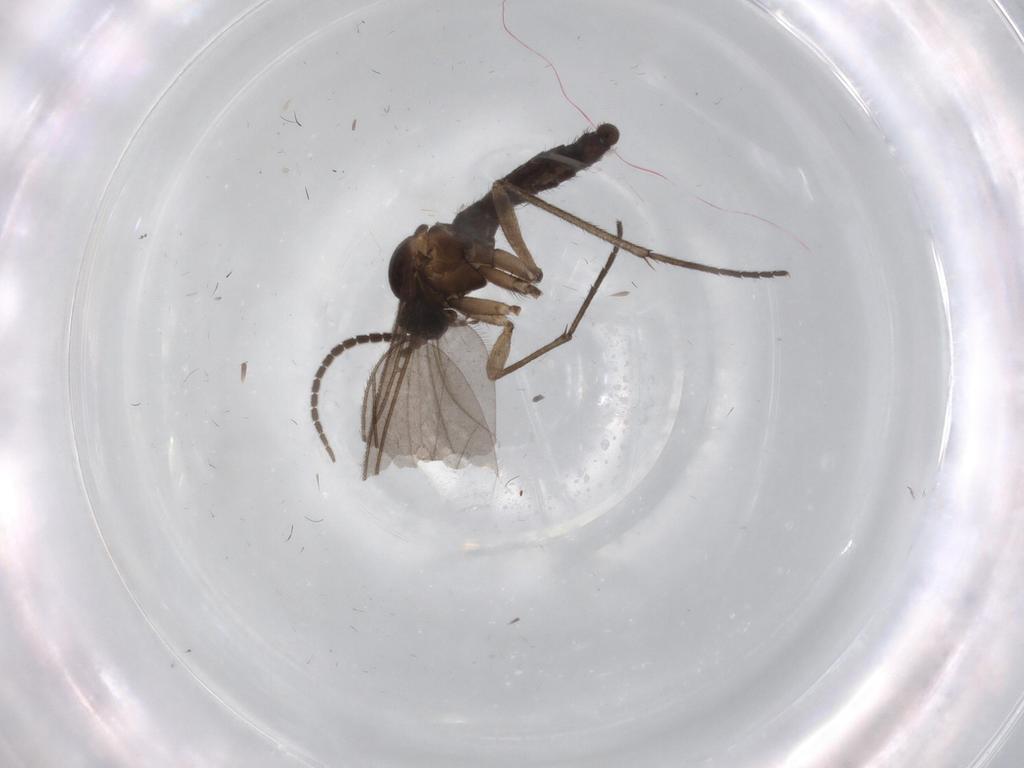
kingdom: Animalia
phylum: Arthropoda
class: Insecta
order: Diptera
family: Sciaridae
